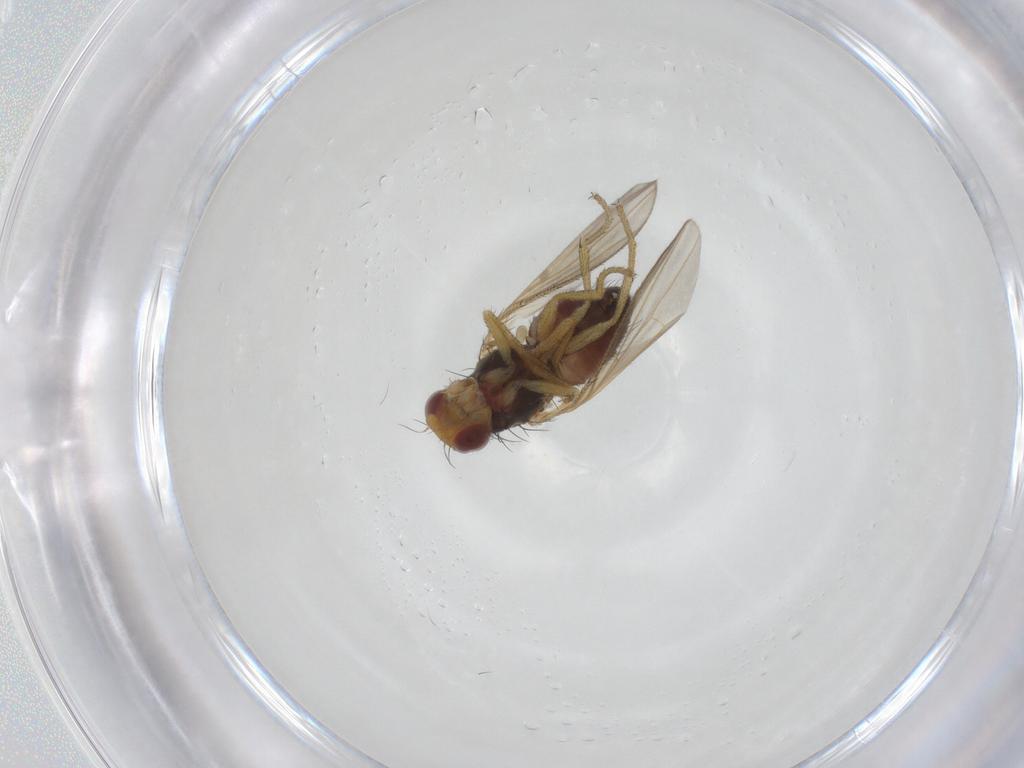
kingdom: Animalia
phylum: Arthropoda
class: Insecta
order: Diptera
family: Heleomyzidae
